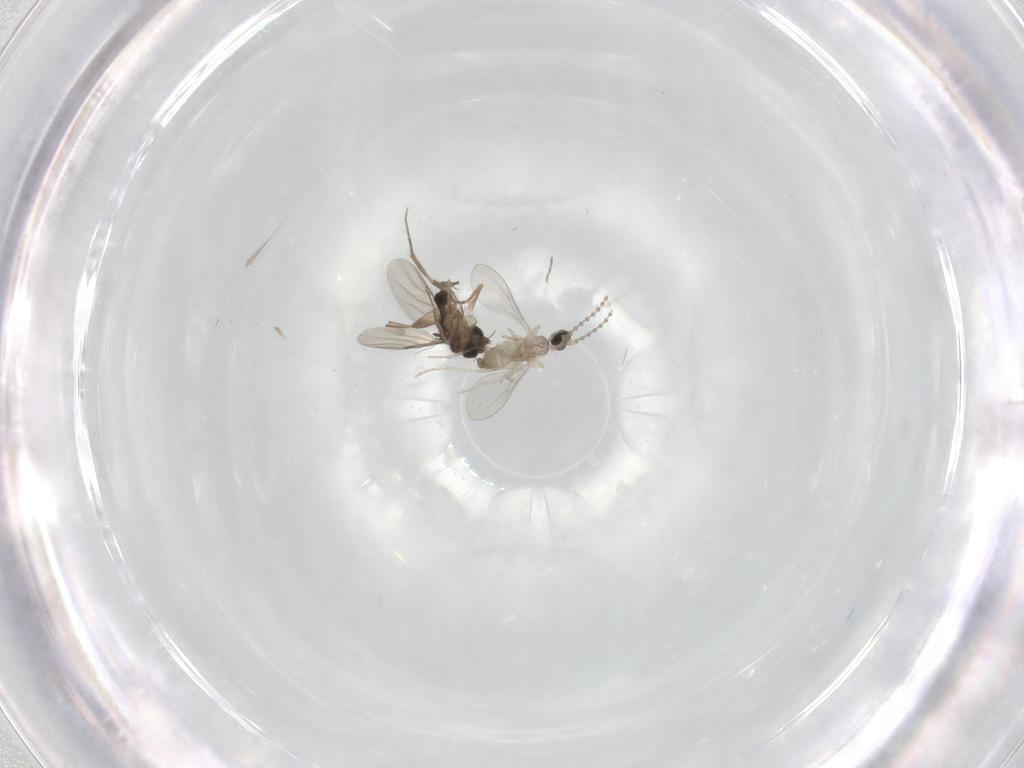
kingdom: Animalia
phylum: Arthropoda
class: Insecta
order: Diptera
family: Cecidomyiidae
